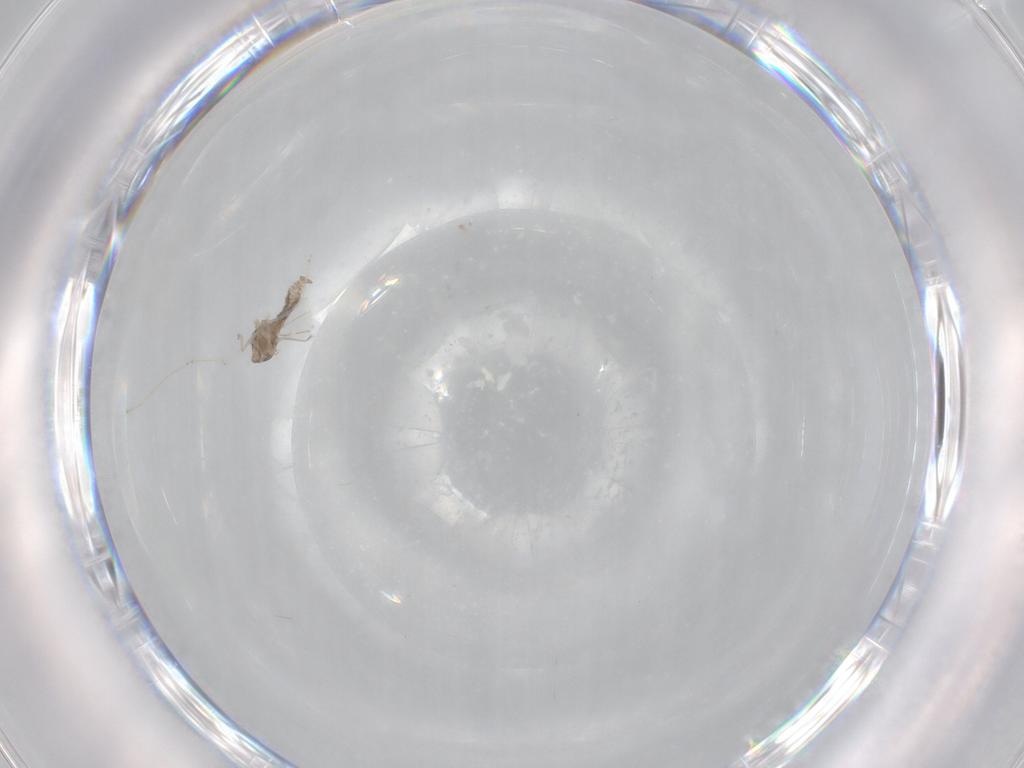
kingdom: Animalia
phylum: Arthropoda
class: Insecta
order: Diptera
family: Cecidomyiidae
